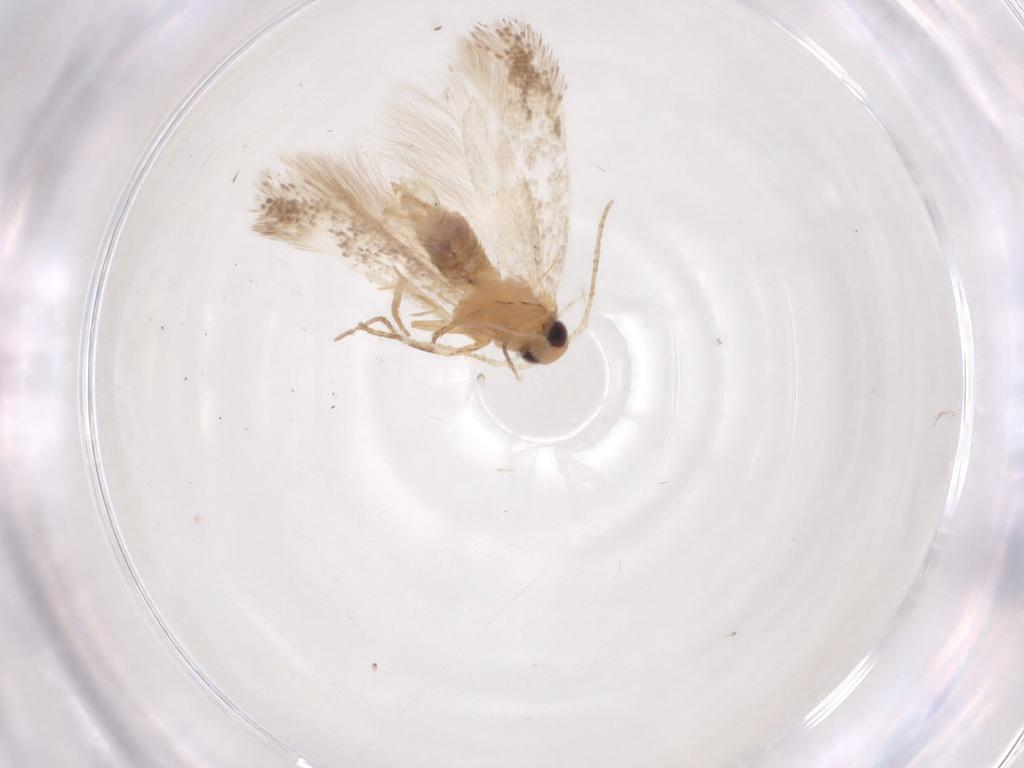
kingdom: Animalia
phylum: Arthropoda
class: Insecta
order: Lepidoptera
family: Gelechiidae
